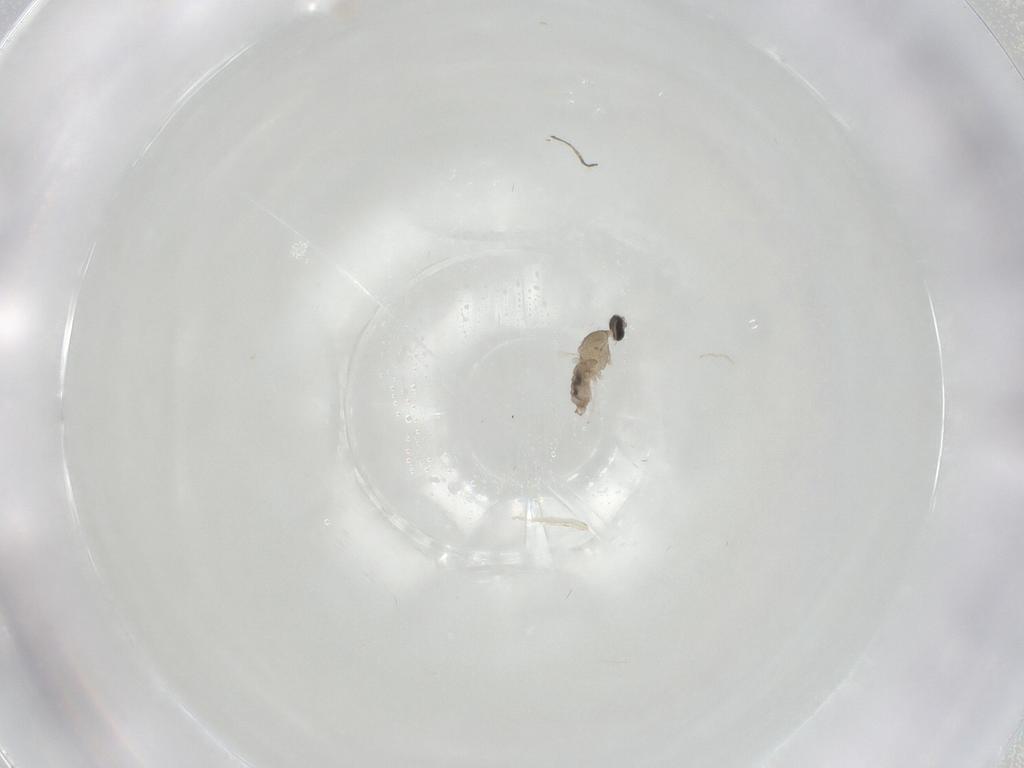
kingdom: Animalia
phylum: Arthropoda
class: Insecta
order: Diptera
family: Cecidomyiidae
